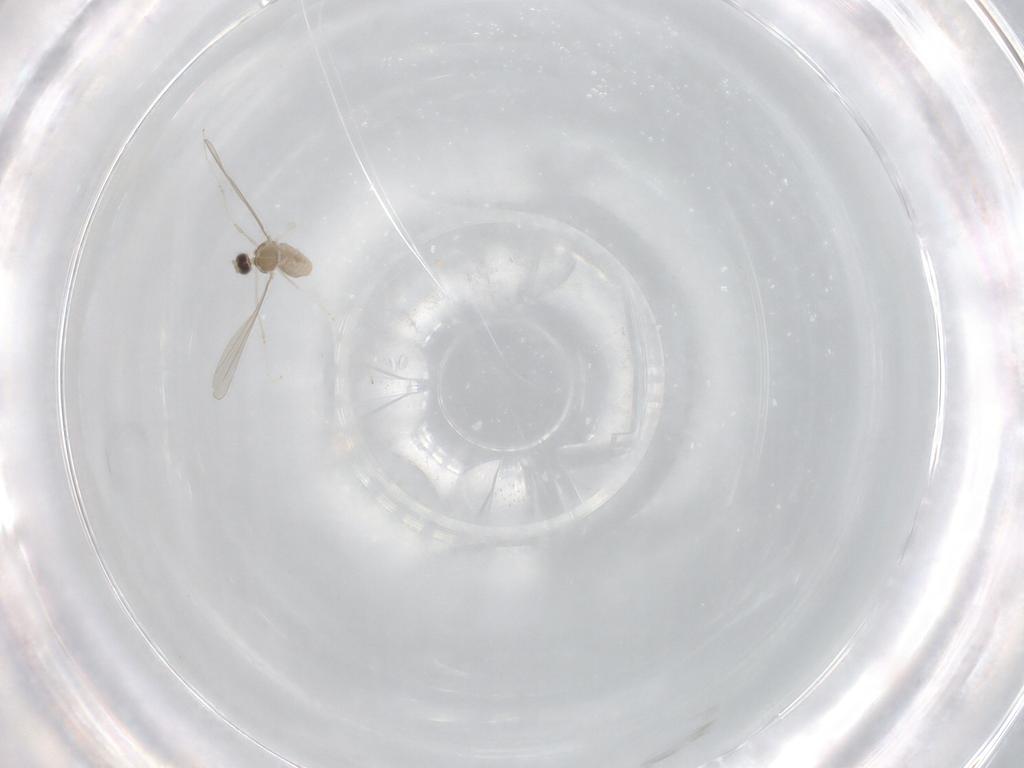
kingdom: Animalia
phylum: Arthropoda
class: Insecta
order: Diptera
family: Cecidomyiidae
